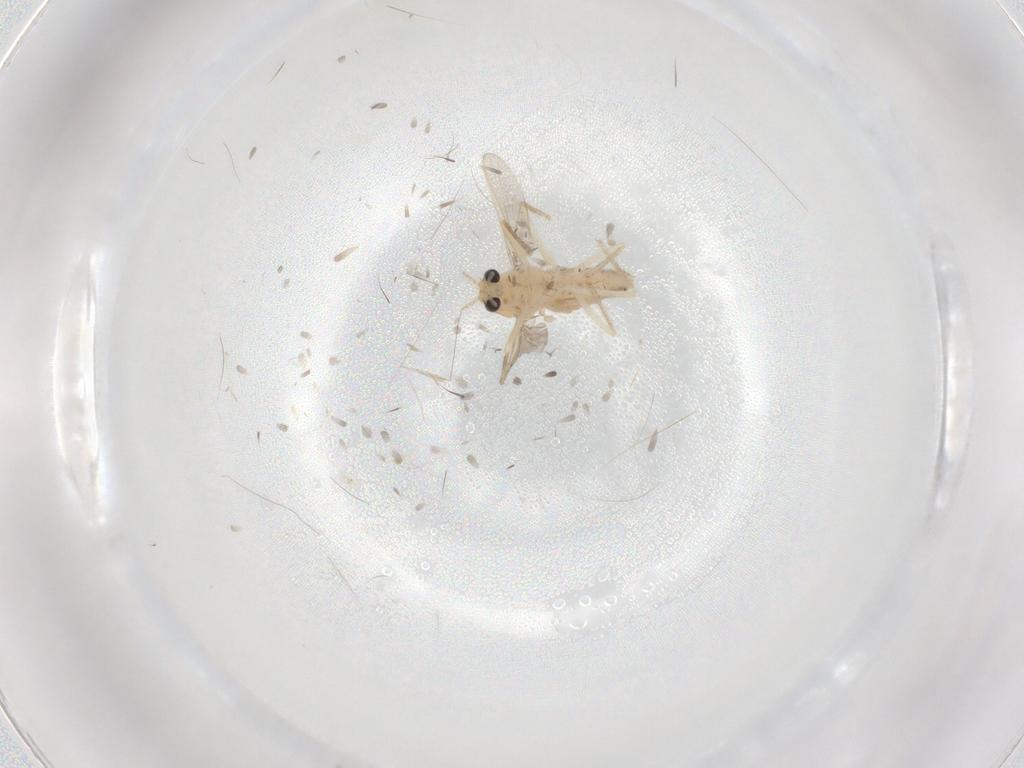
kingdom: Animalia
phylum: Arthropoda
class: Insecta
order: Diptera
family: Chironomidae
